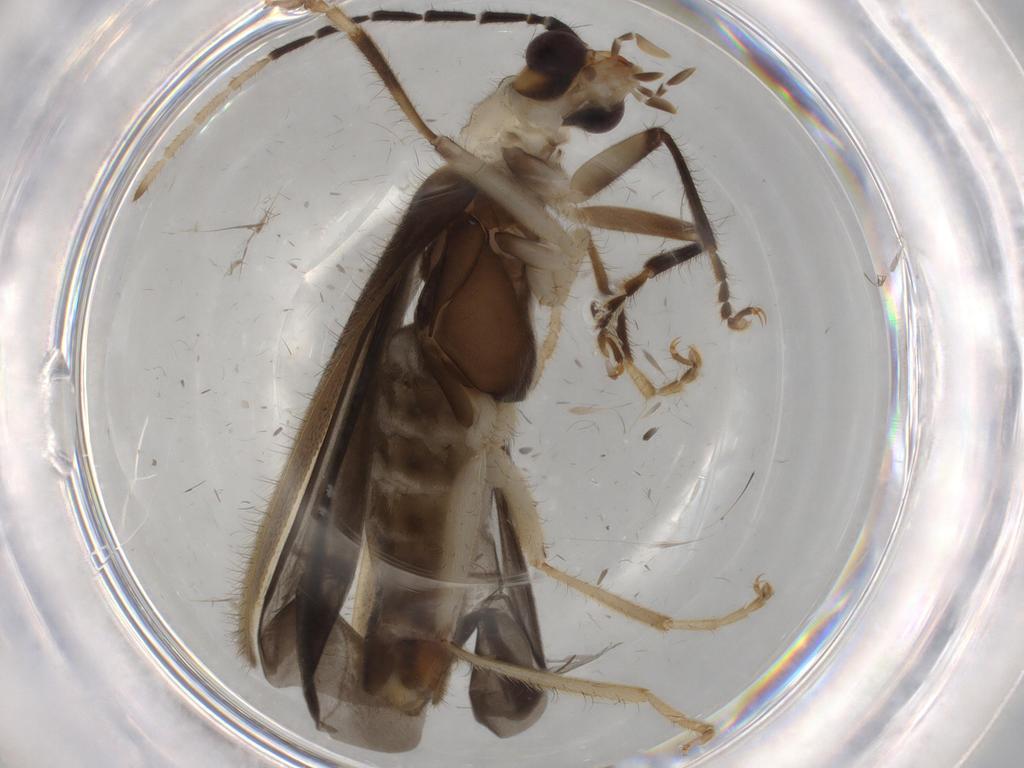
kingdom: Animalia
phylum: Arthropoda
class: Insecta
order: Coleoptera
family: Cantharidae
